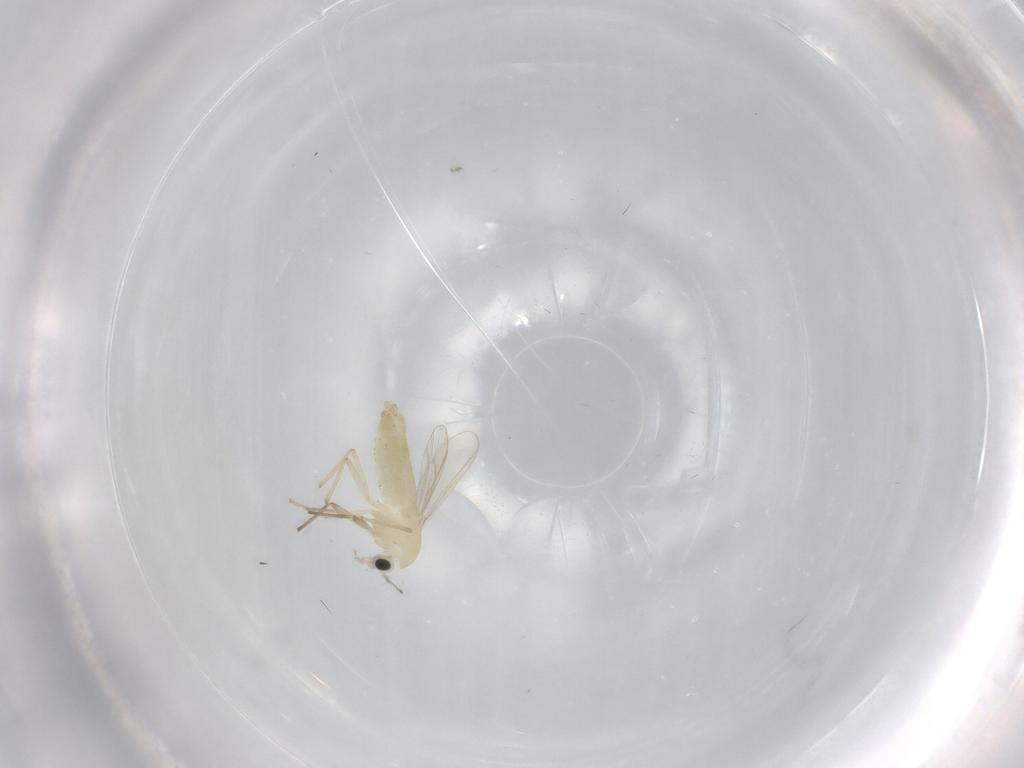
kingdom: Animalia
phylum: Arthropoda
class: Insecta
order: Diptera
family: Chironomidae
